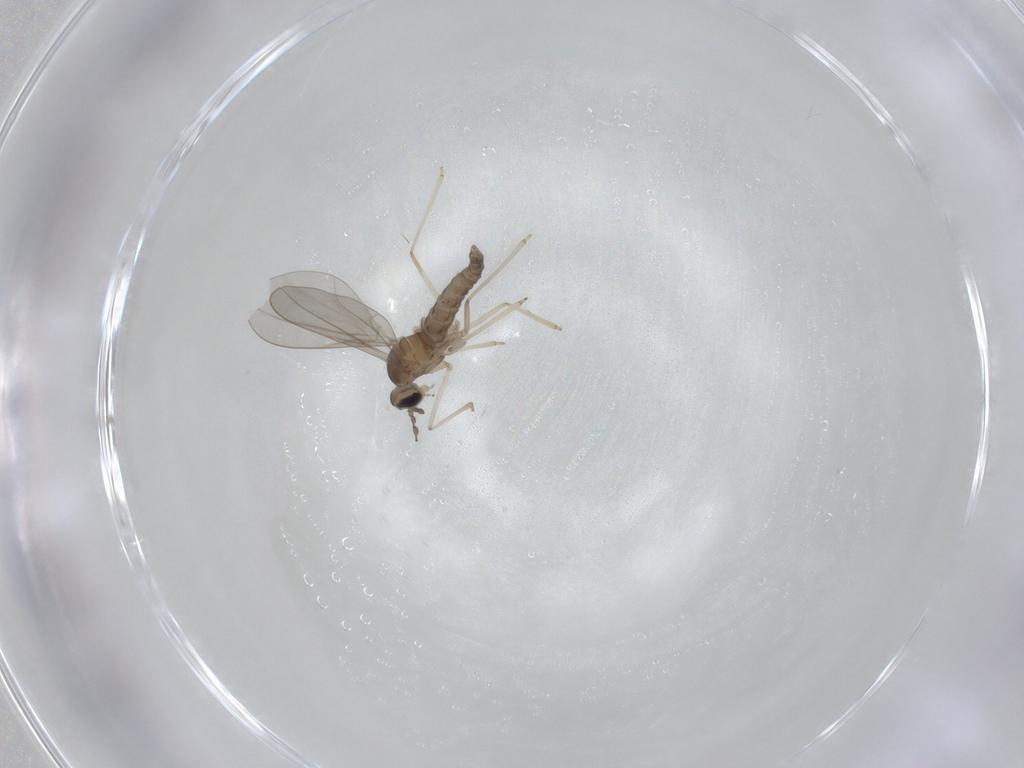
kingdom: Animalia
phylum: Arthropoda
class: Insecta
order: Diptera
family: Cecidomyiidae
